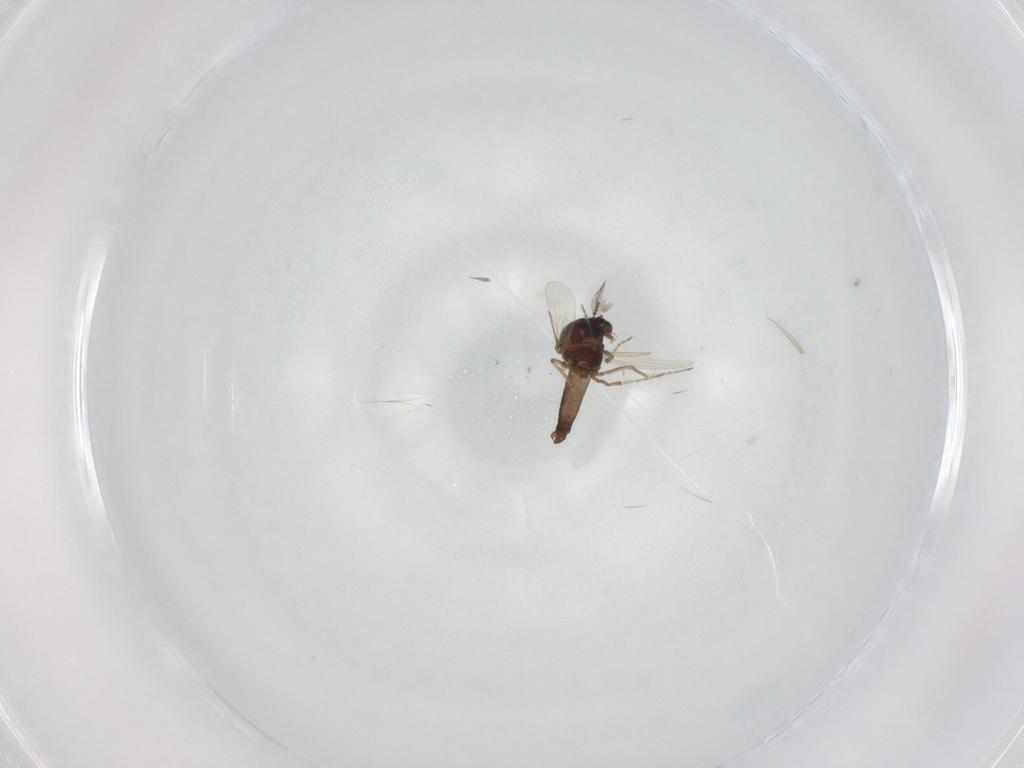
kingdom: Animalia
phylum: Arthropoda
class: Insecta
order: Diptera
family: Ceratopogonidae
